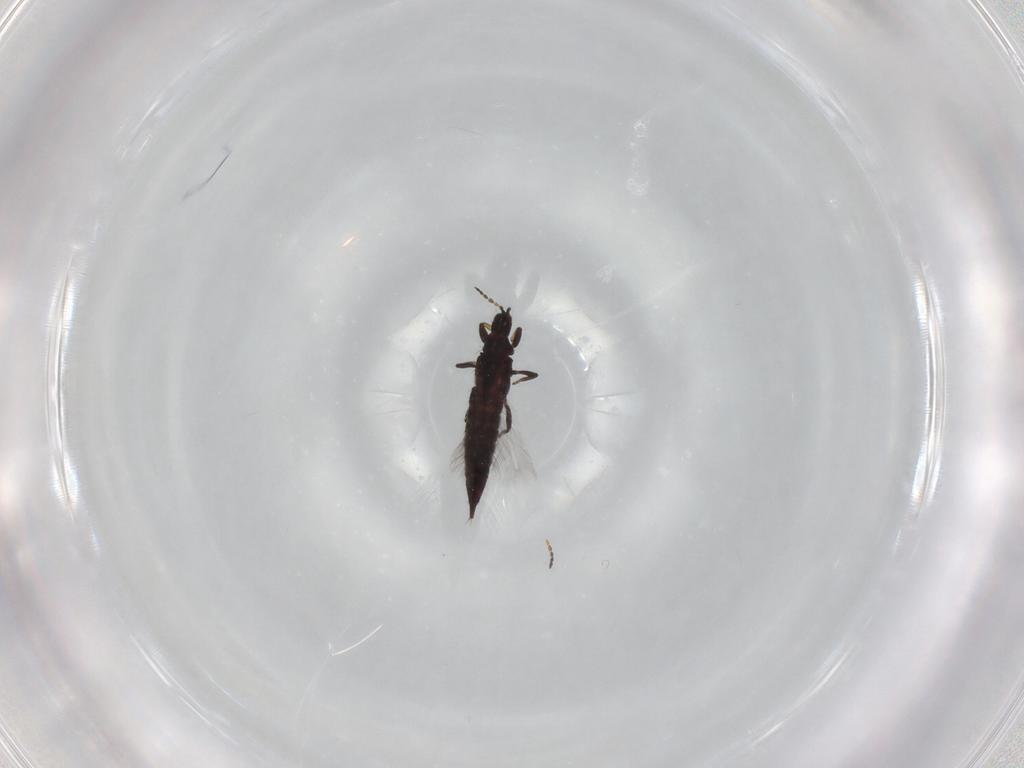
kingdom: Animalia
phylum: Arthropoda
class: Insecta
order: Thysanoptera
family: Phlaeothripidae
